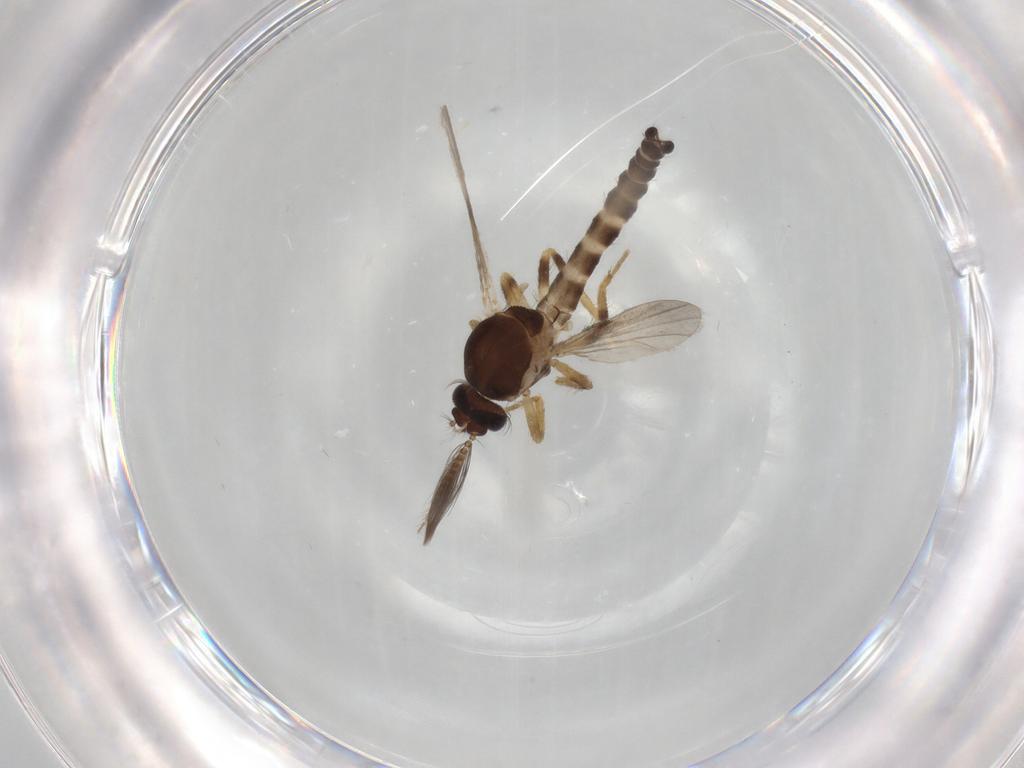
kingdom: Animalia
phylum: Arthropoda
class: Insecta
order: Diptera
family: Ceratopogonidae
